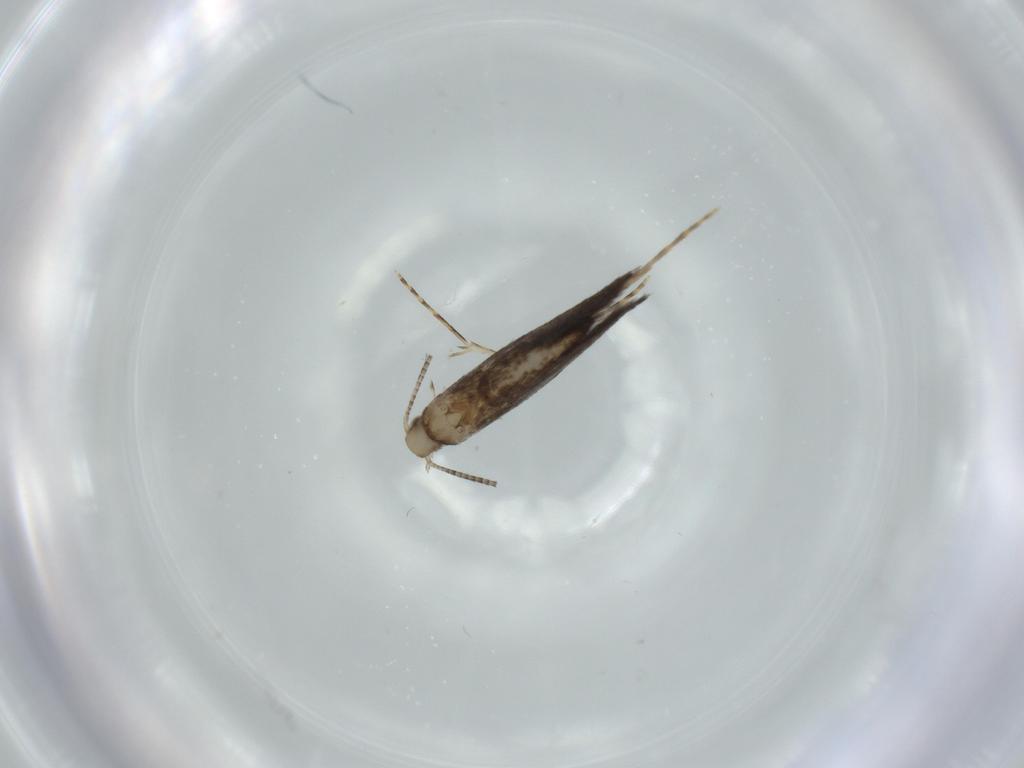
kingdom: Animalia
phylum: Arthropoda
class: Insecta
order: Lepidoptera
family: Gracillariidae
